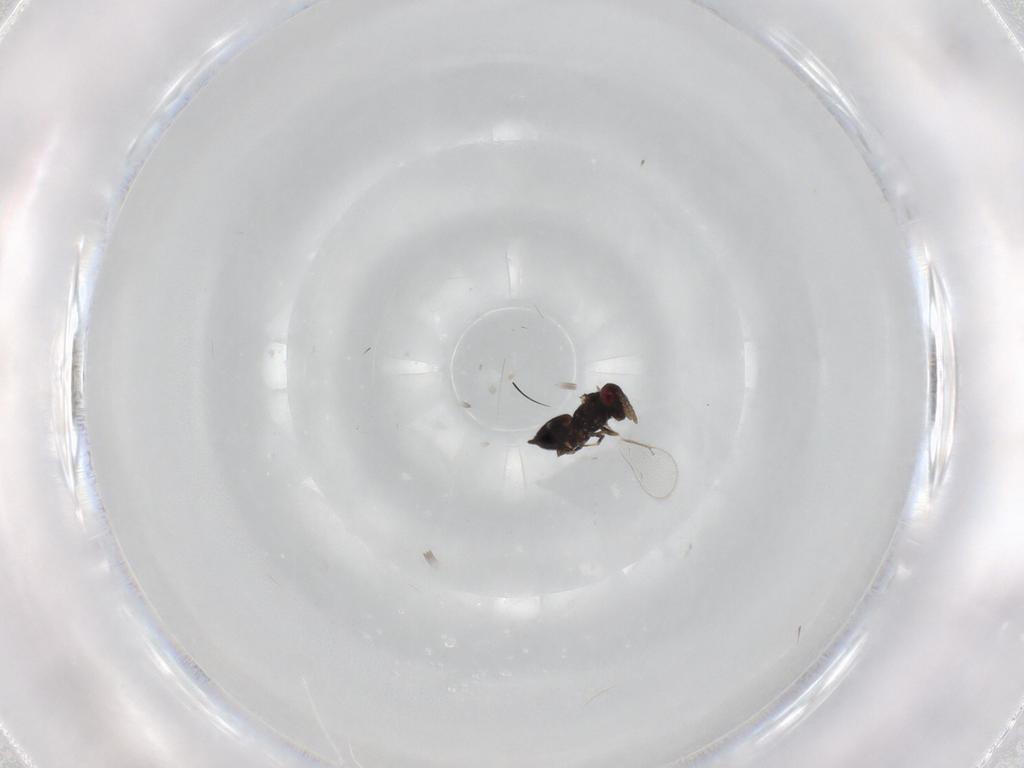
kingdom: Animalia
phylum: Arthropoda
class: Insecta
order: Hymenoptera
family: Eulophidae
